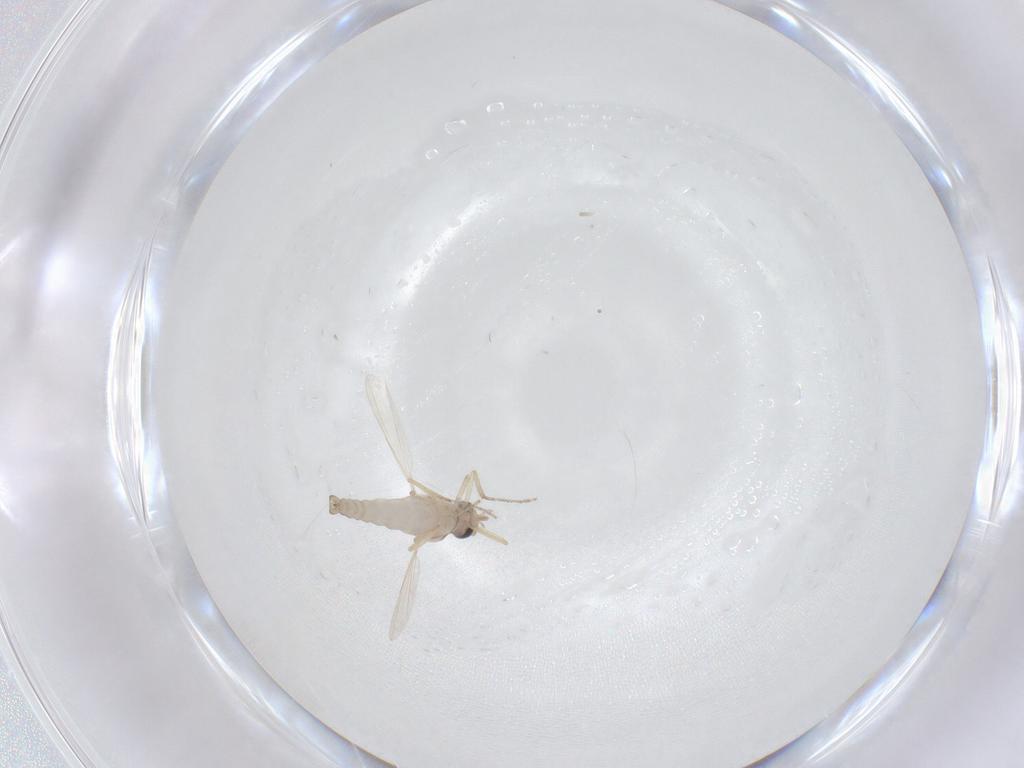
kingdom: Animalia
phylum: Arthropoda
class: Insecta
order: Diptera
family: Ceratopogonidae
